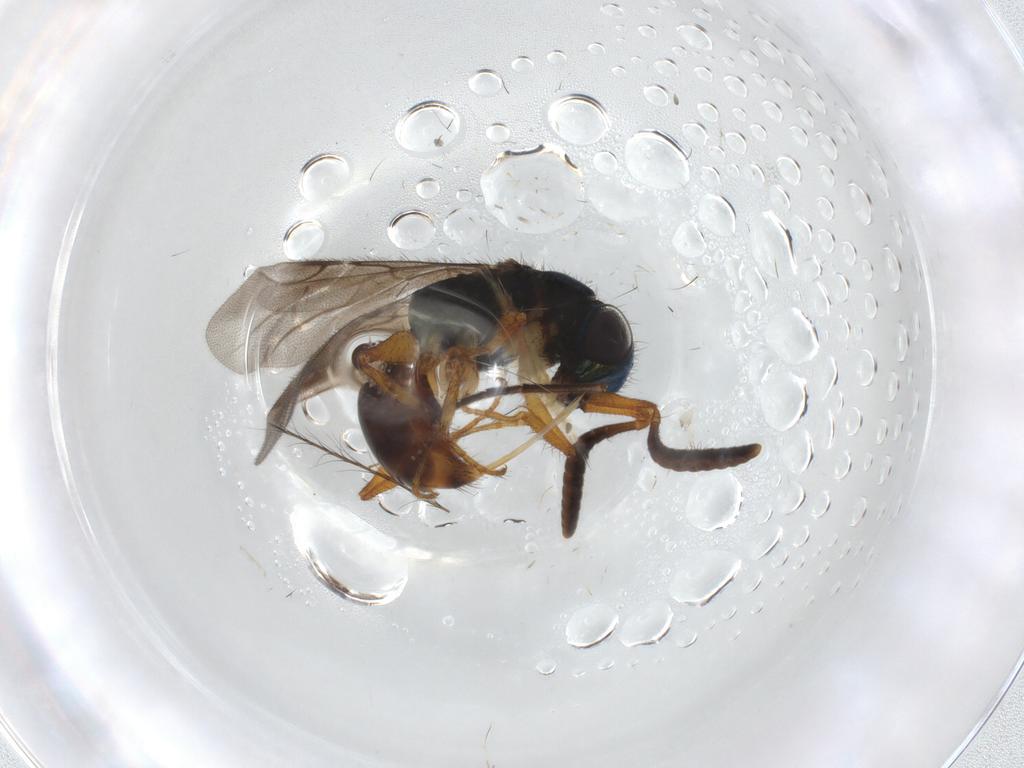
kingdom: Animalia
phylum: Arthropoda
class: Insecta
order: Hymenoptera
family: Chrysididae
